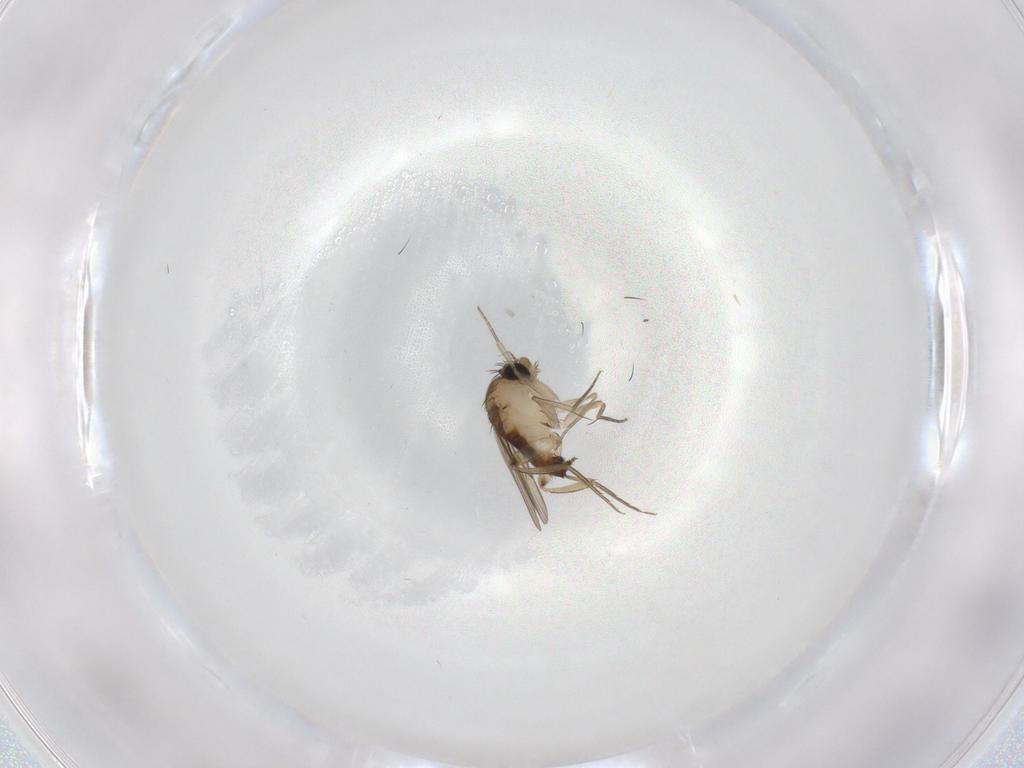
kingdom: Animalia
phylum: Arthropoda
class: Insecta
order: Diptera
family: Phoridae
